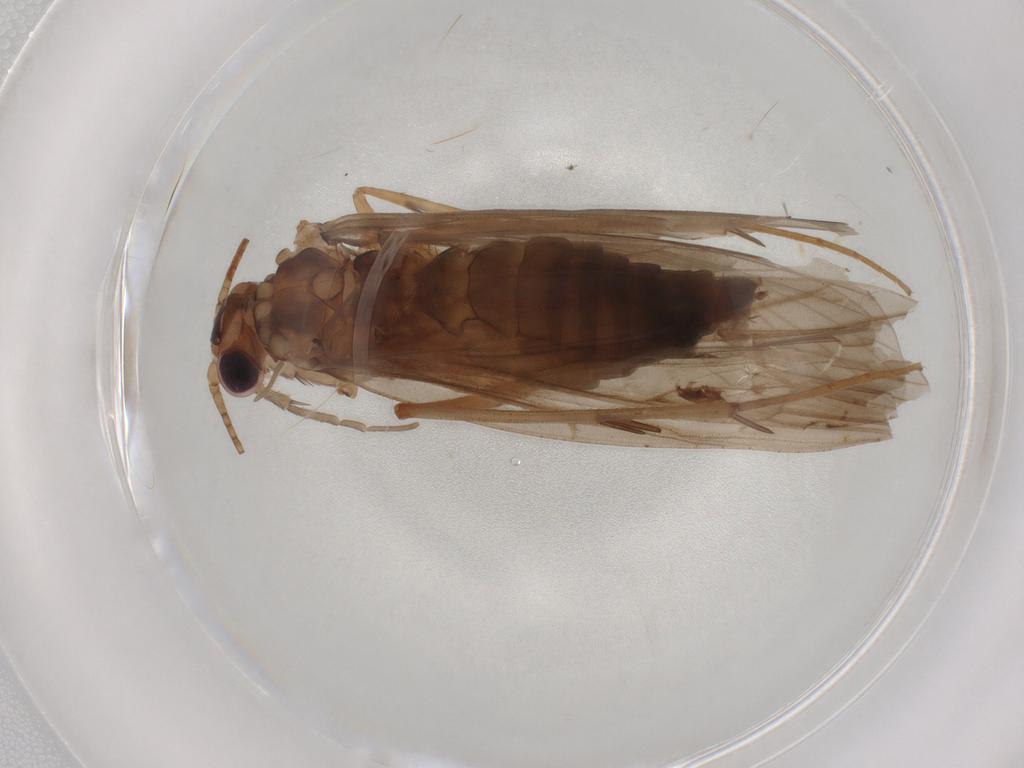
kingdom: Animalia
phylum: Arthropoda
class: Insecta
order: Trichoptera
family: Philopotamidae
